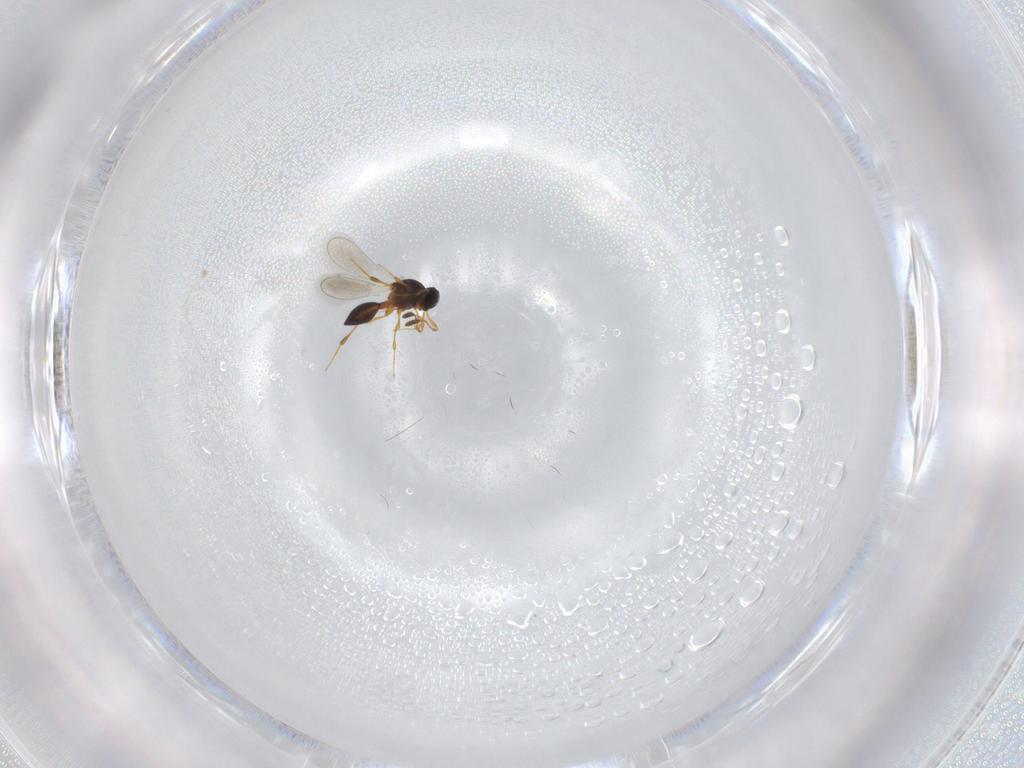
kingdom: Animalia
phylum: Arthropoda
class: Insecta
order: Hymenoptera
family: Platygastridae
